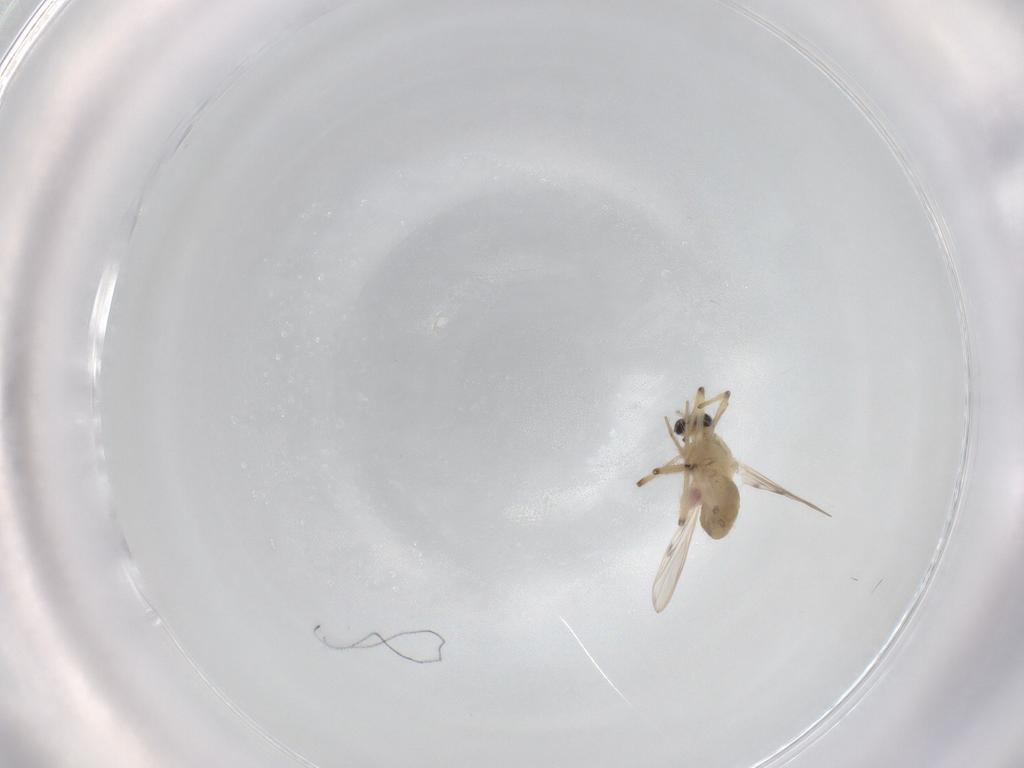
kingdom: Animalia
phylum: Arthropoda
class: Insecta
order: Diptera
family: Chironomidae
